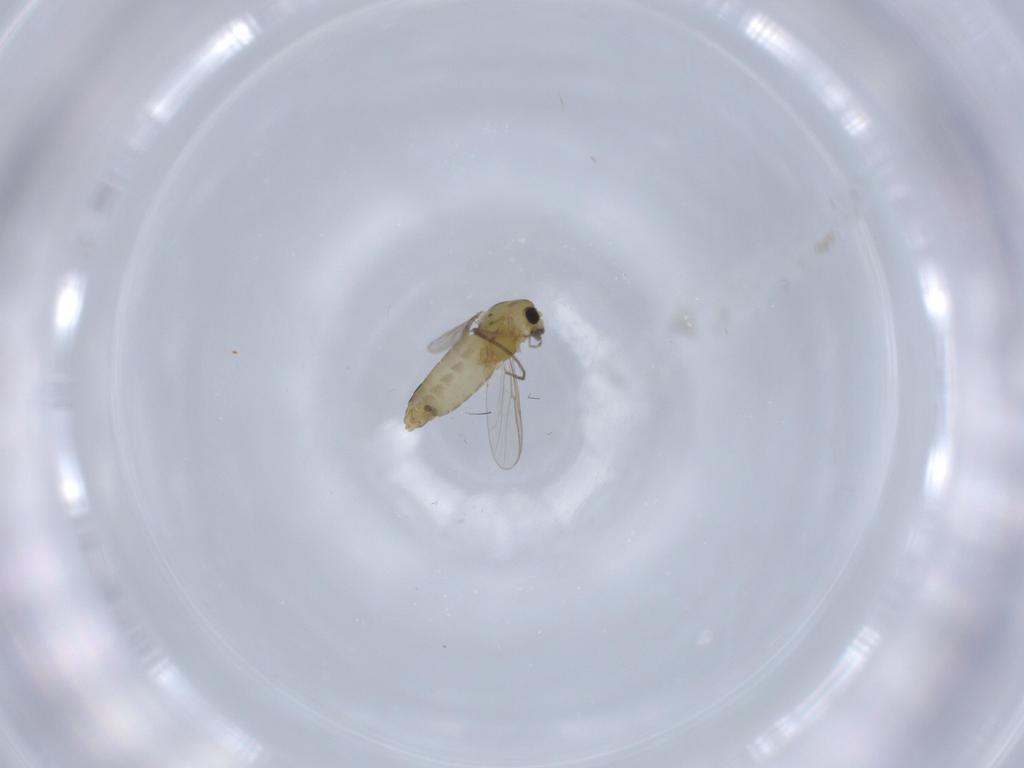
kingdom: Animalia
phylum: Arthropoda
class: Insecta
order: Diptera
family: Chironomidae
